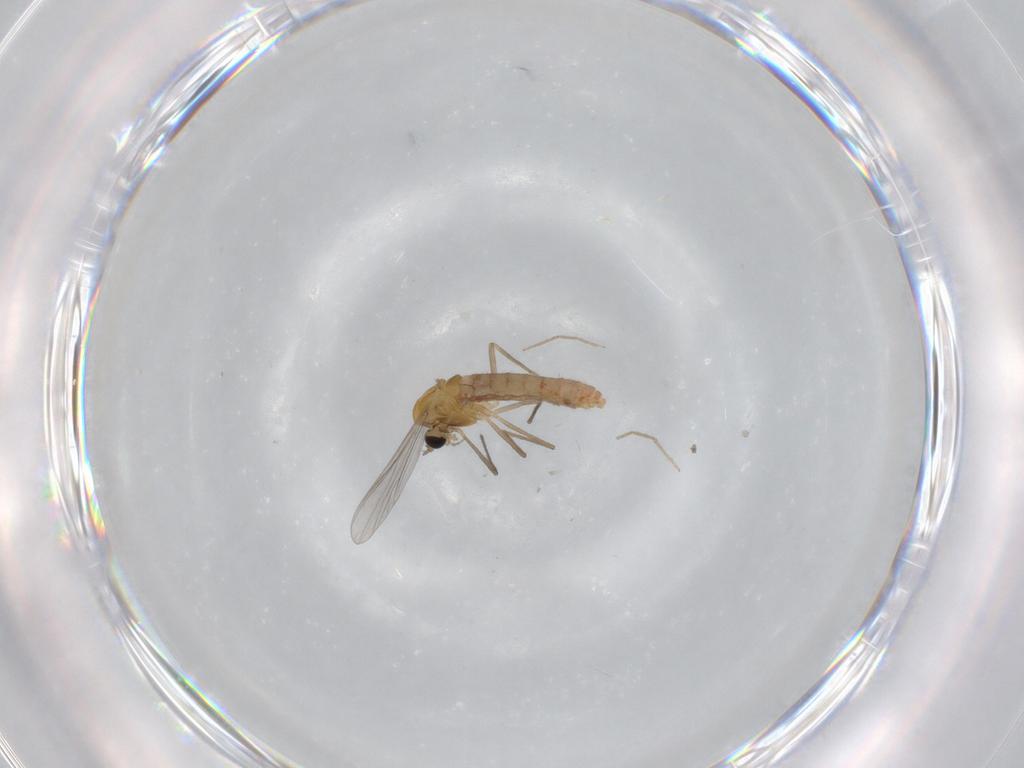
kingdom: Animalia
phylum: Arthropoda
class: Insecta
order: Diptera
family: Chironomidae
